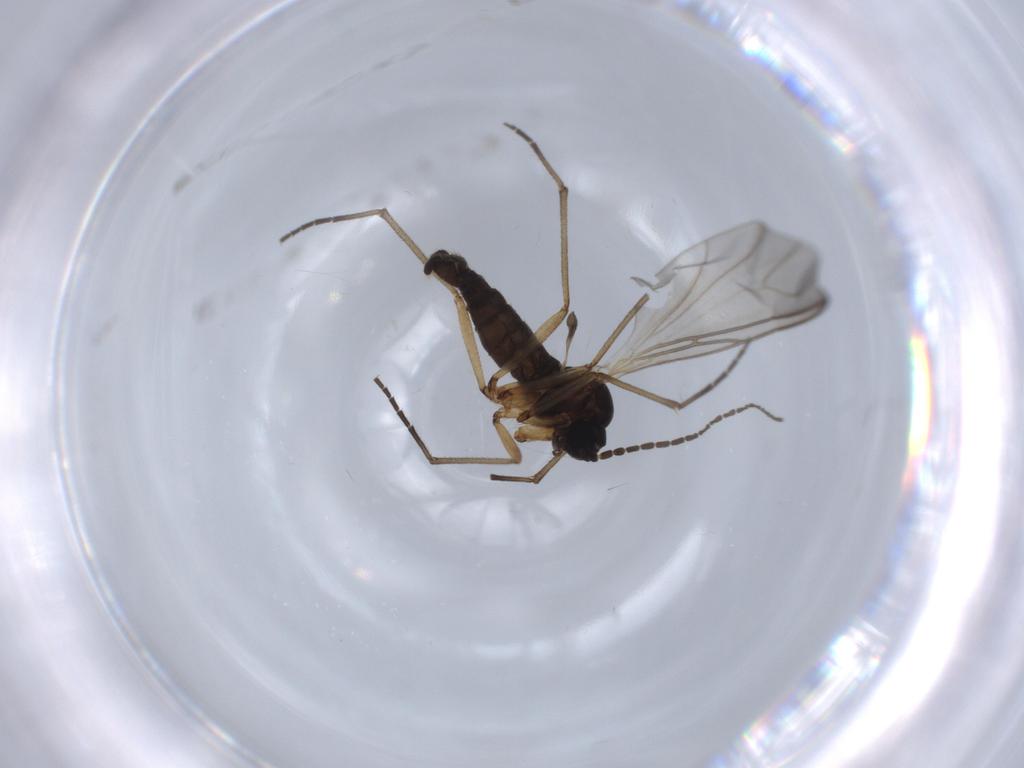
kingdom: Animalia
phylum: Arthropoda
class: Insecta
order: Diptera
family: Sciaridae
